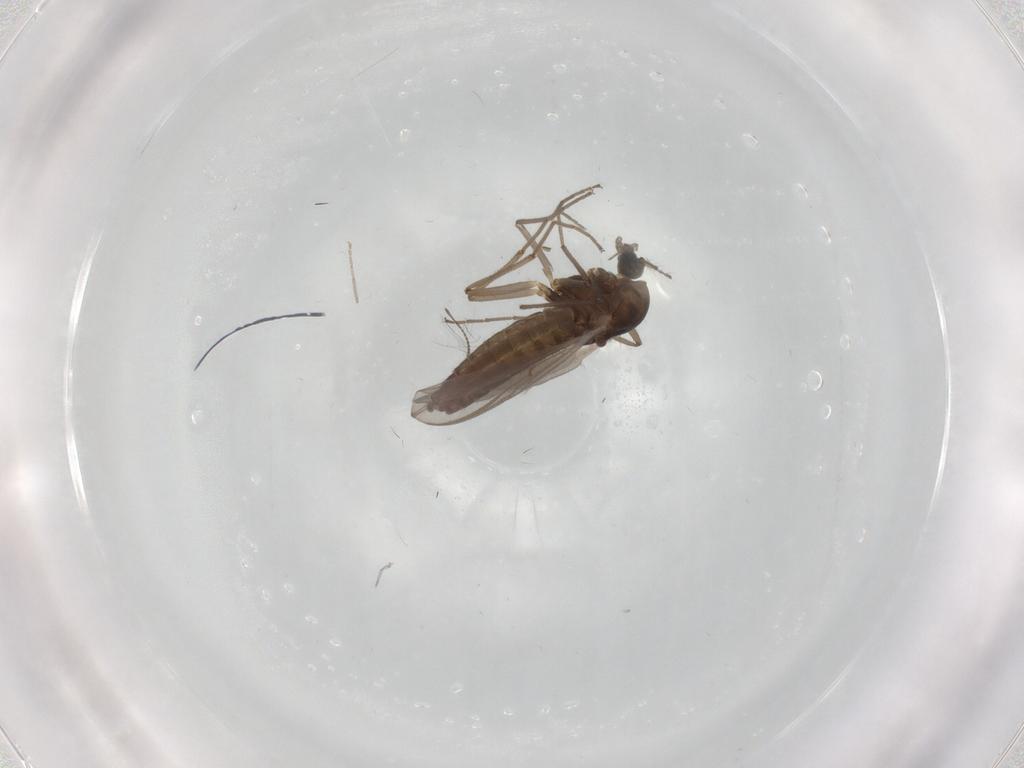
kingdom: Animalia
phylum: Arthropoda
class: Insecta
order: Diptera
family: Chironomidae
